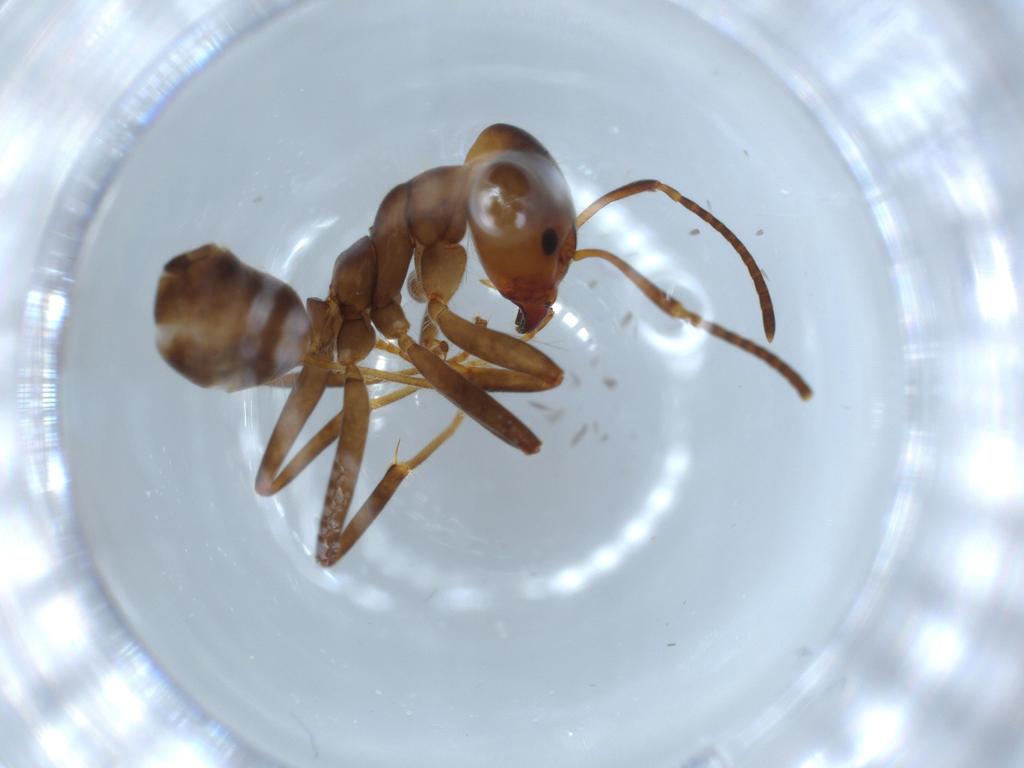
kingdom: Animalia
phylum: Arthropoda
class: Insecta
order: Hymenoptera
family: Formicidae
